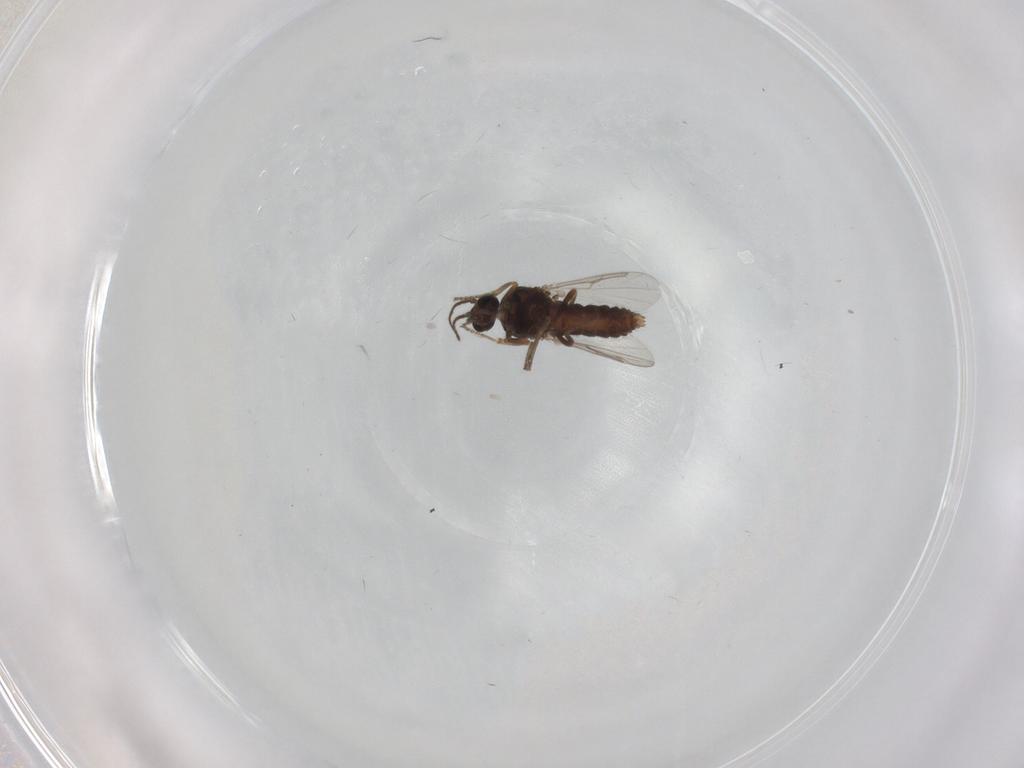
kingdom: Animalia
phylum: Arthropoda
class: Insecta
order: Diptera
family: Ceratopogonidae
